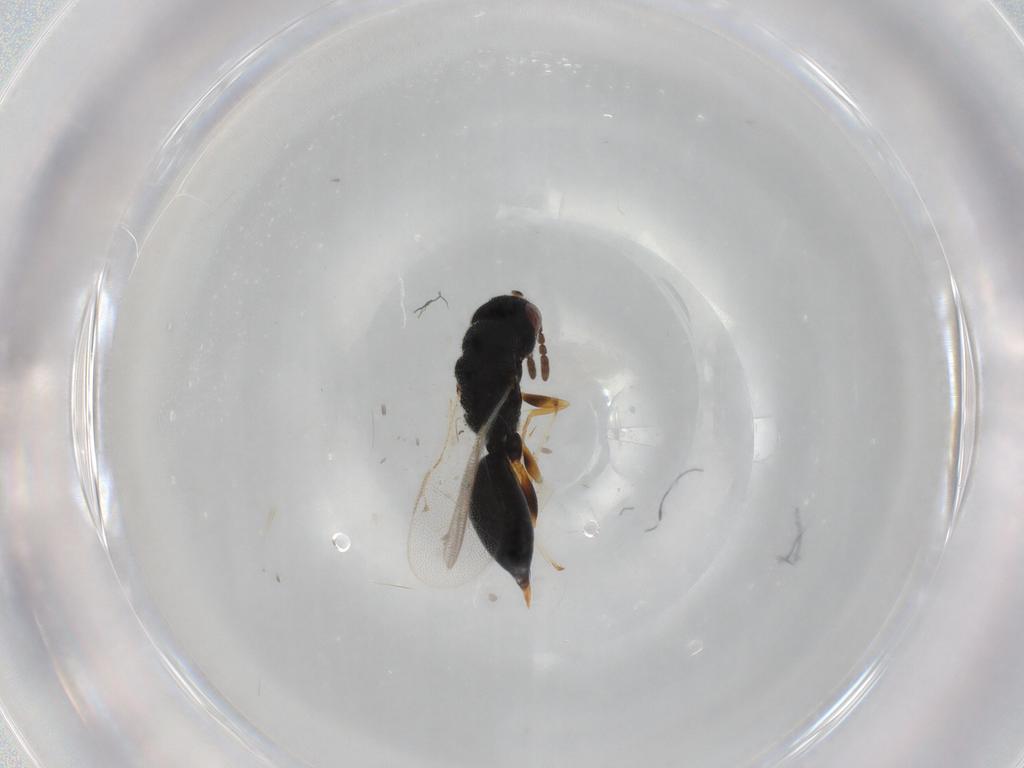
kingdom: Animalia
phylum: Arthropoda
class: Insecta
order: Hymenoptera
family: Eurytomidae
